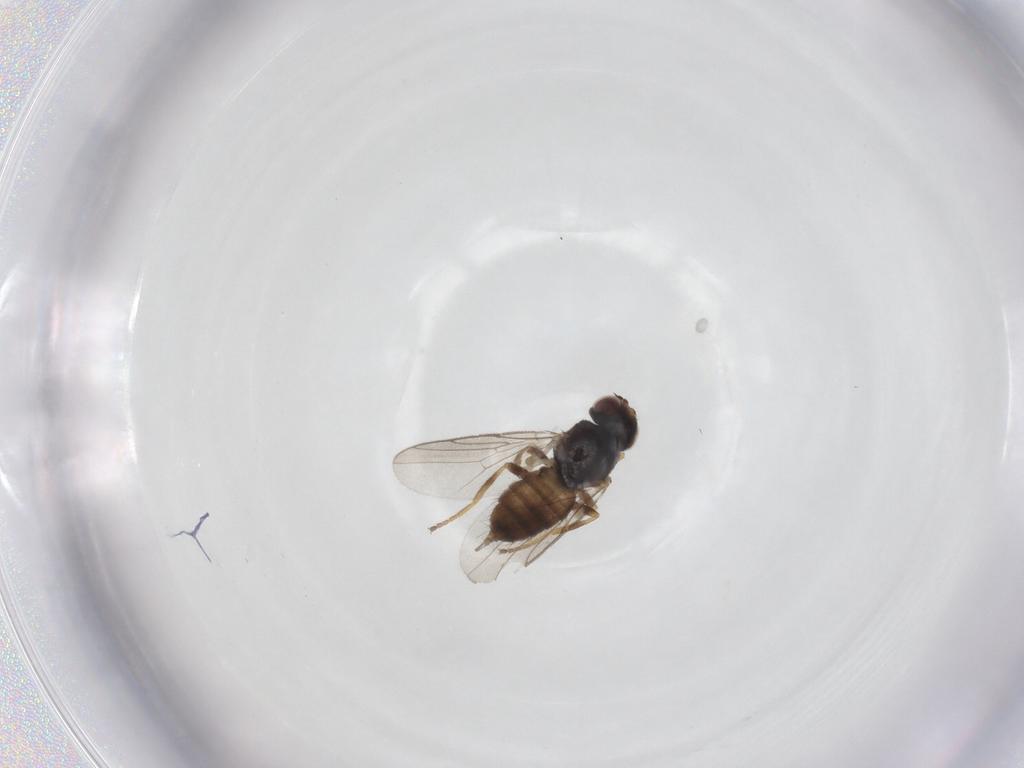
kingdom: Animalia
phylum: Arthropoda
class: Insecta
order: Diptera
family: Chloropidae
